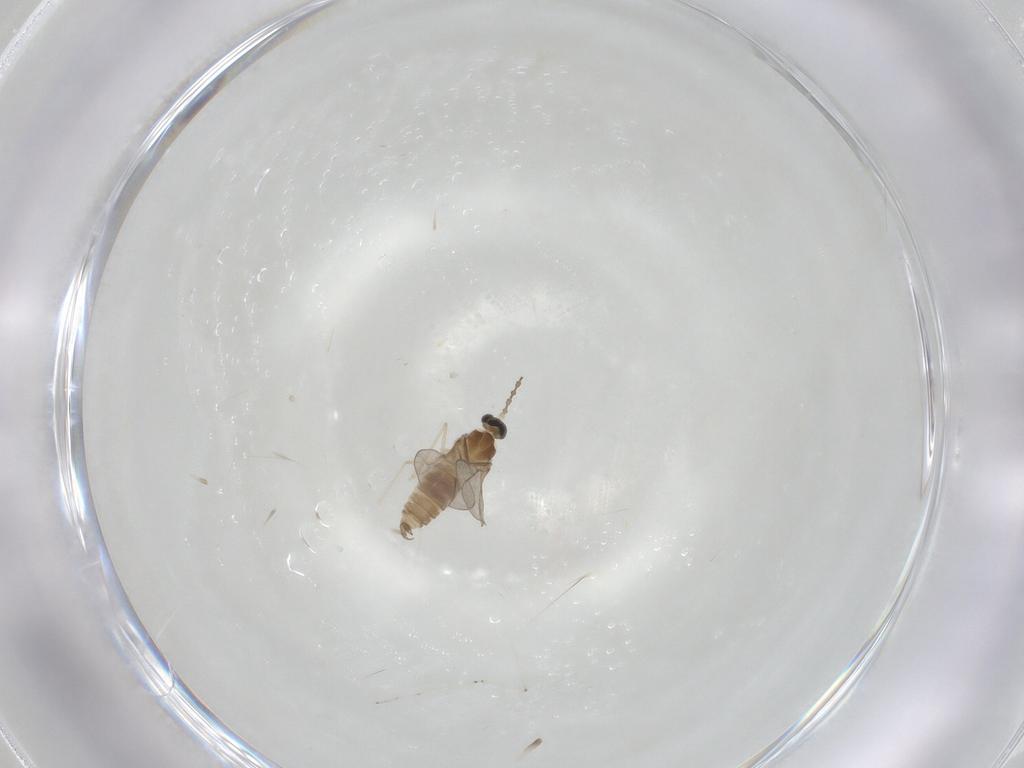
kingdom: Animalia
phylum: Arthropoda
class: Insecta
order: Diptera
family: Cecidomyiidae
